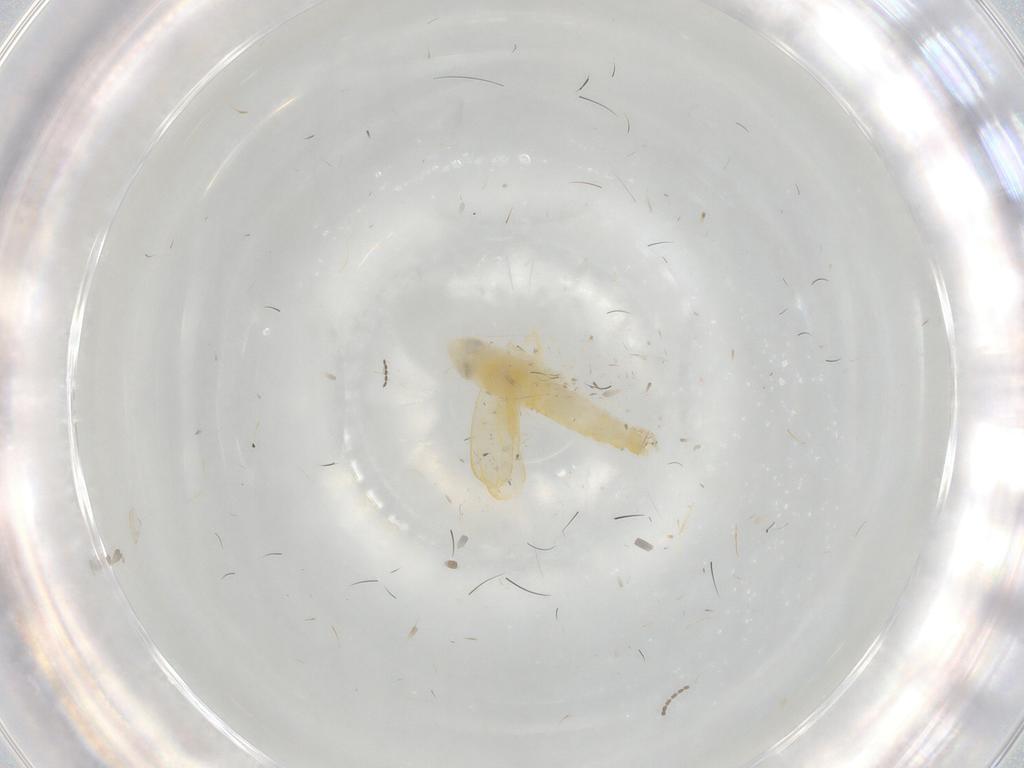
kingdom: Animalia
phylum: Arthropoda
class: Insecta
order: Hemiptera
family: Cicadellidae
